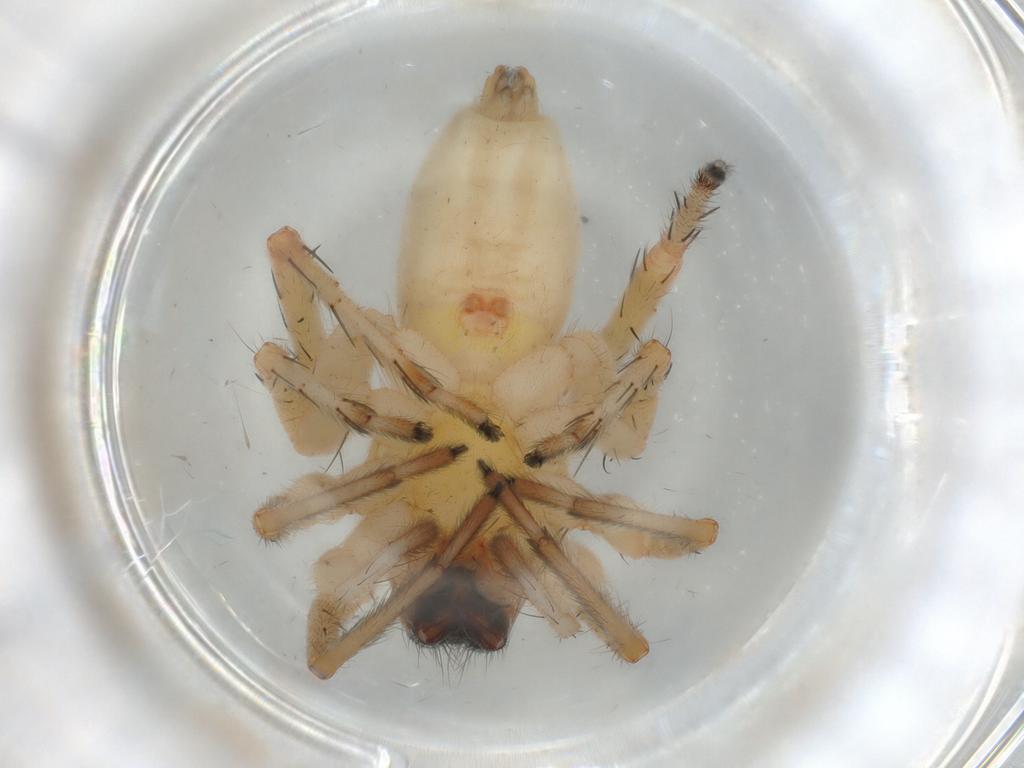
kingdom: Animalia
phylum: Arthropoda
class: Arachnida
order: Araneae
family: Anyphaenidae
